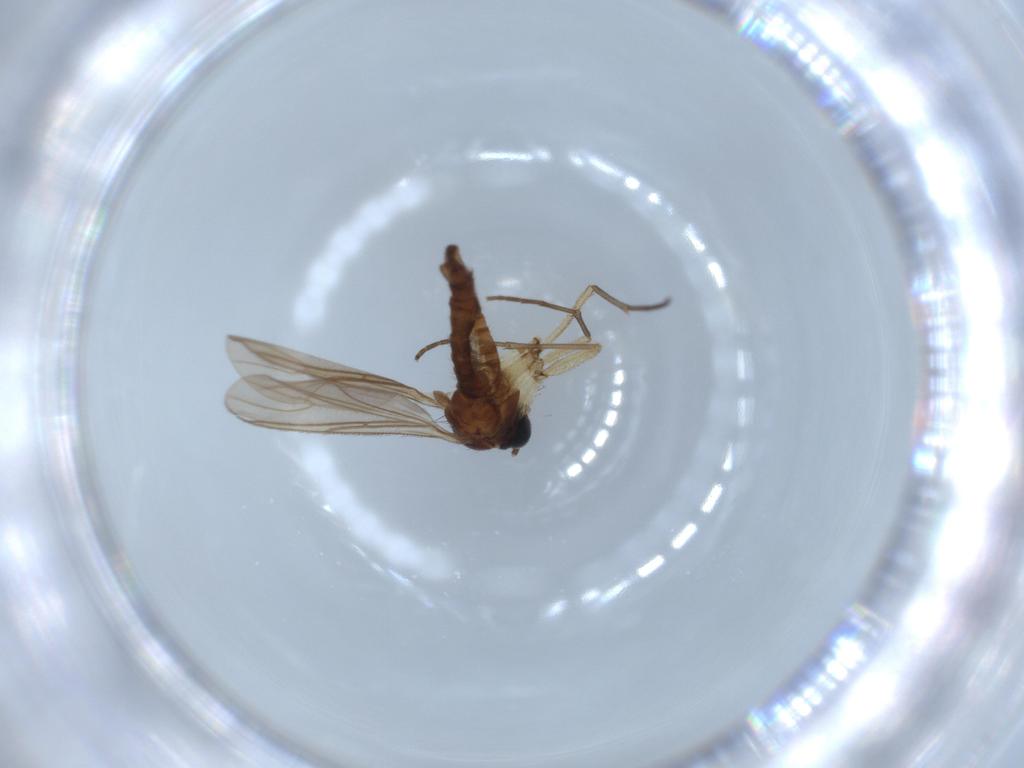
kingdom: Animalia
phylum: Arthropoda
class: Insecta
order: Diptera
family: Sciaridae
